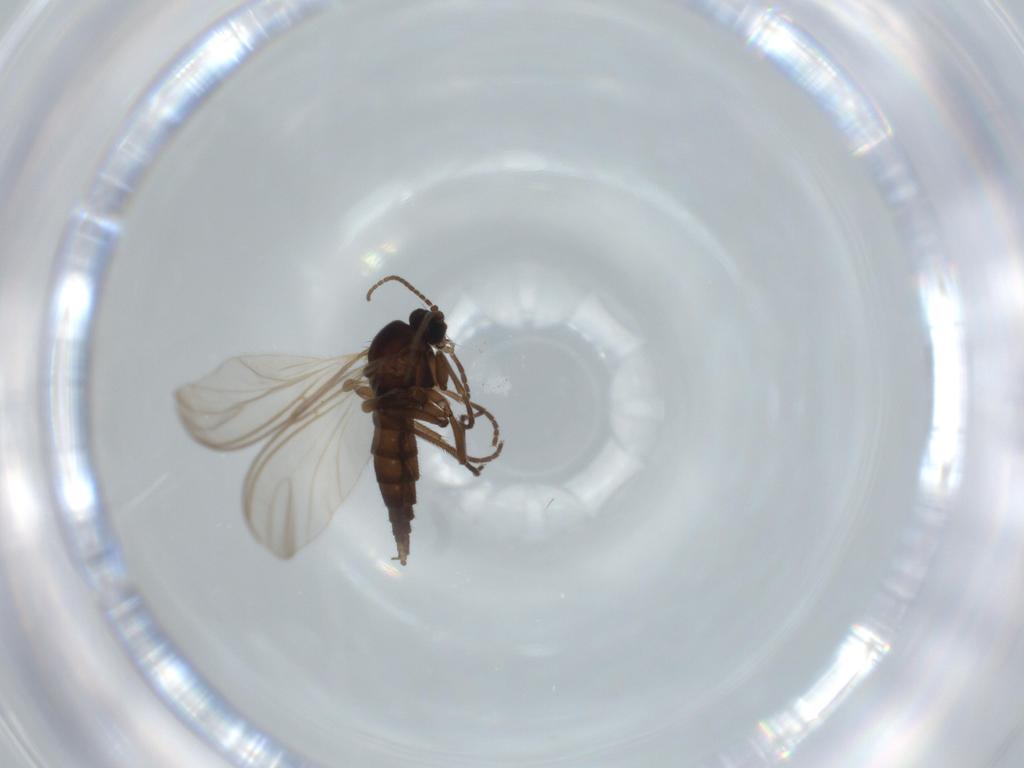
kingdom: Animalia
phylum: Arthropoda
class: Insecta
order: Diptera
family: Sciaridae
